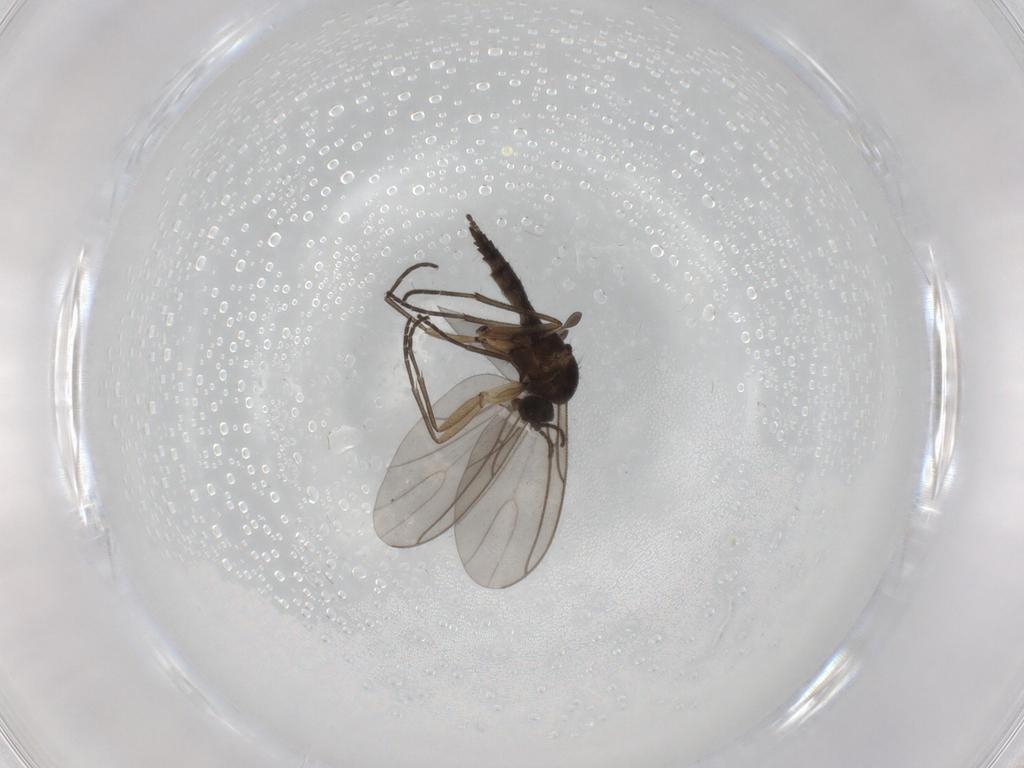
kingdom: Animalia
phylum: Arthropoda
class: Insecta
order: Diptera
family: Sciaridae
